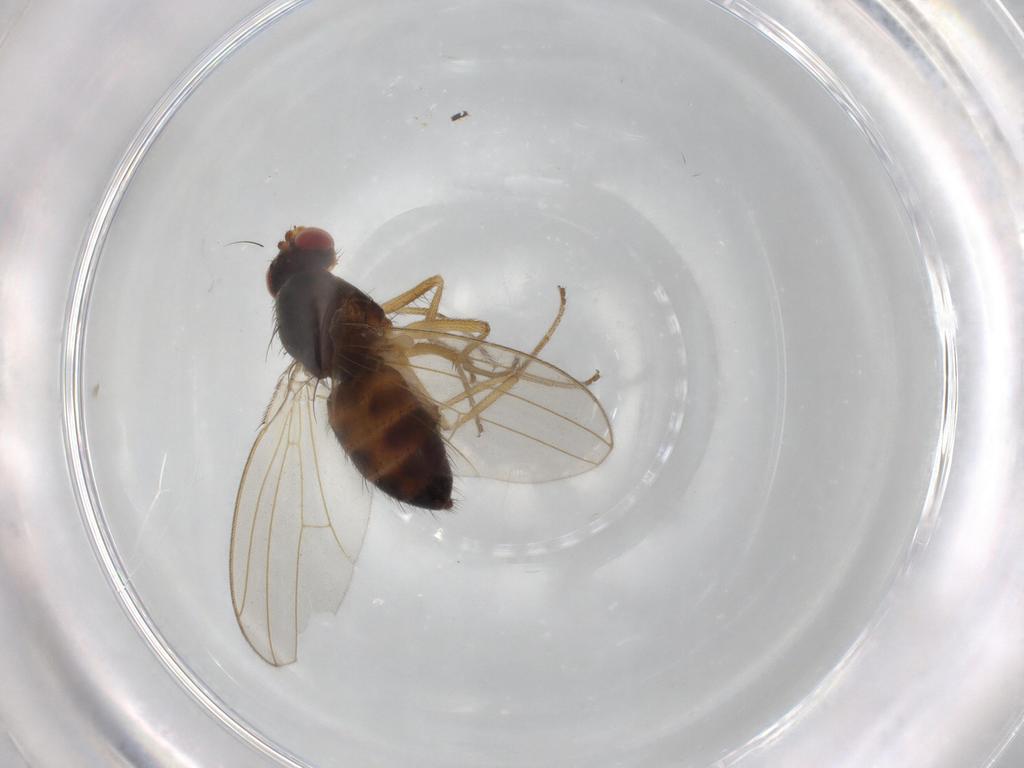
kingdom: Animalia
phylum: Arthropoda
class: Insecta
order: Diptera
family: Drosophilidae
